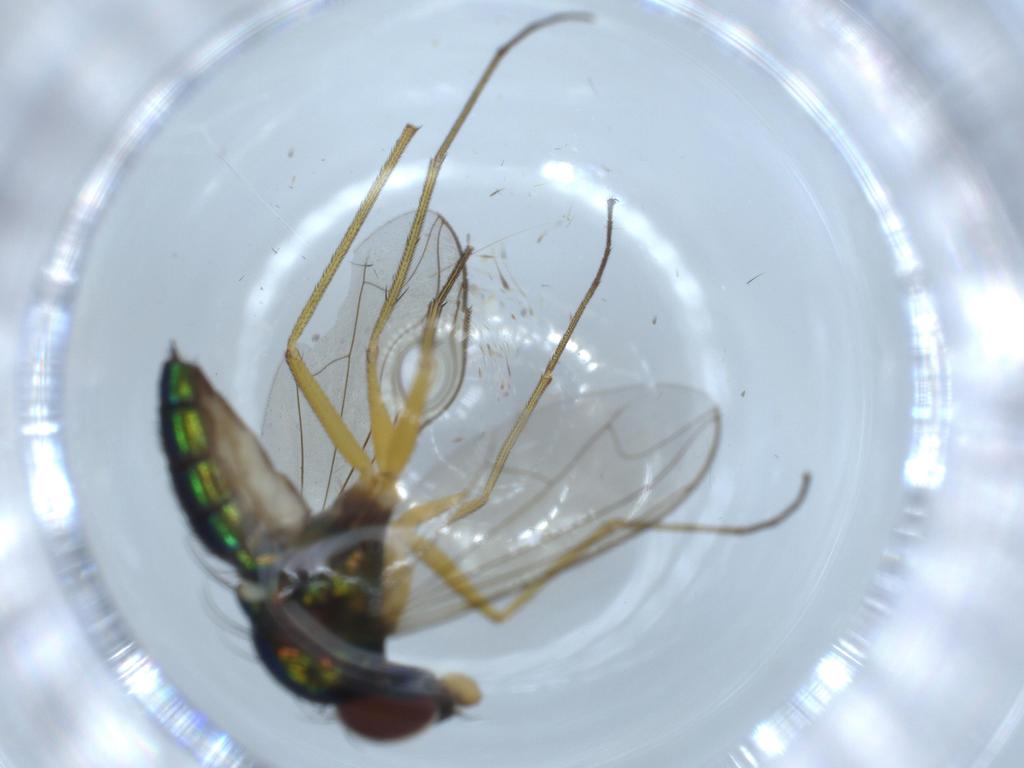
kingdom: Animalia
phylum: Arthropoda
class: Insecta
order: Diptera
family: Dolichopodidae
